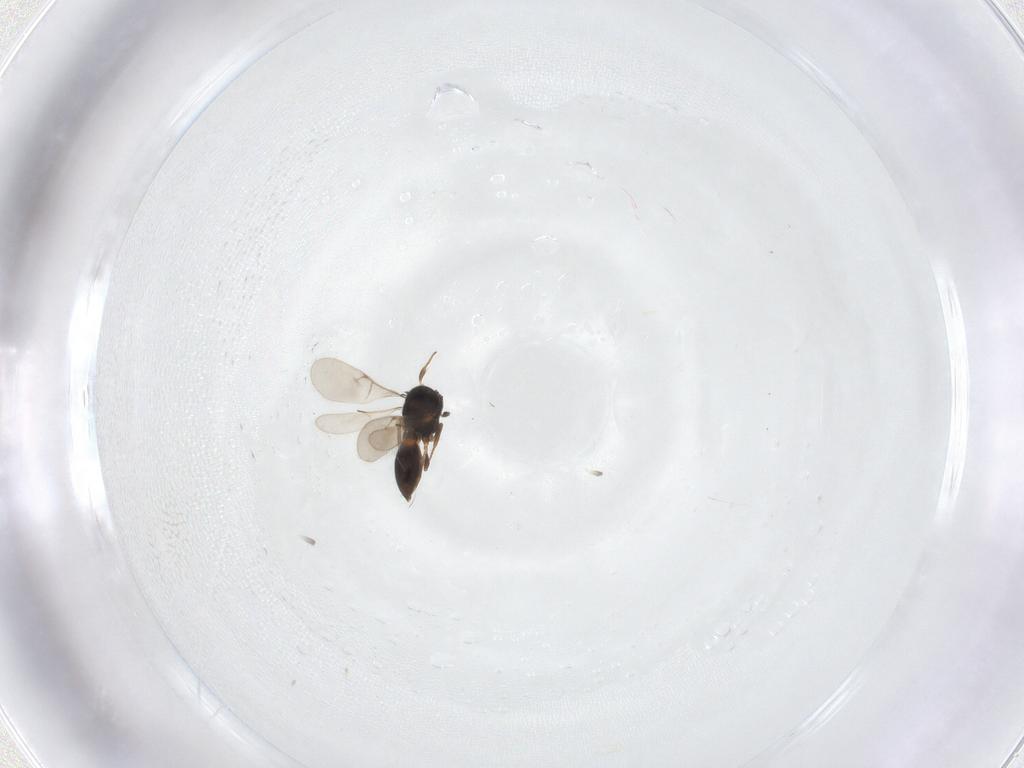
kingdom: Animalia
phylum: Arthropoda
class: Insecta
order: Hymenoptera
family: Scelionidae
